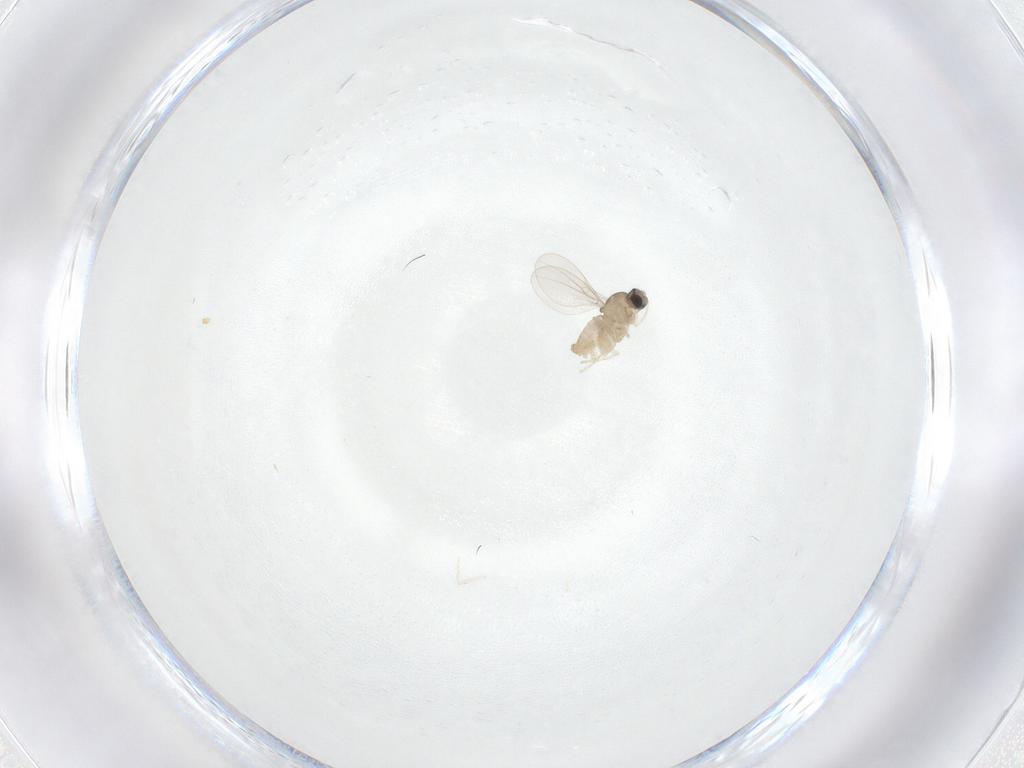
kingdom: Animalia
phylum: Arthropoda
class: Insecta
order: Diptera
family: Cecidomyiidae
